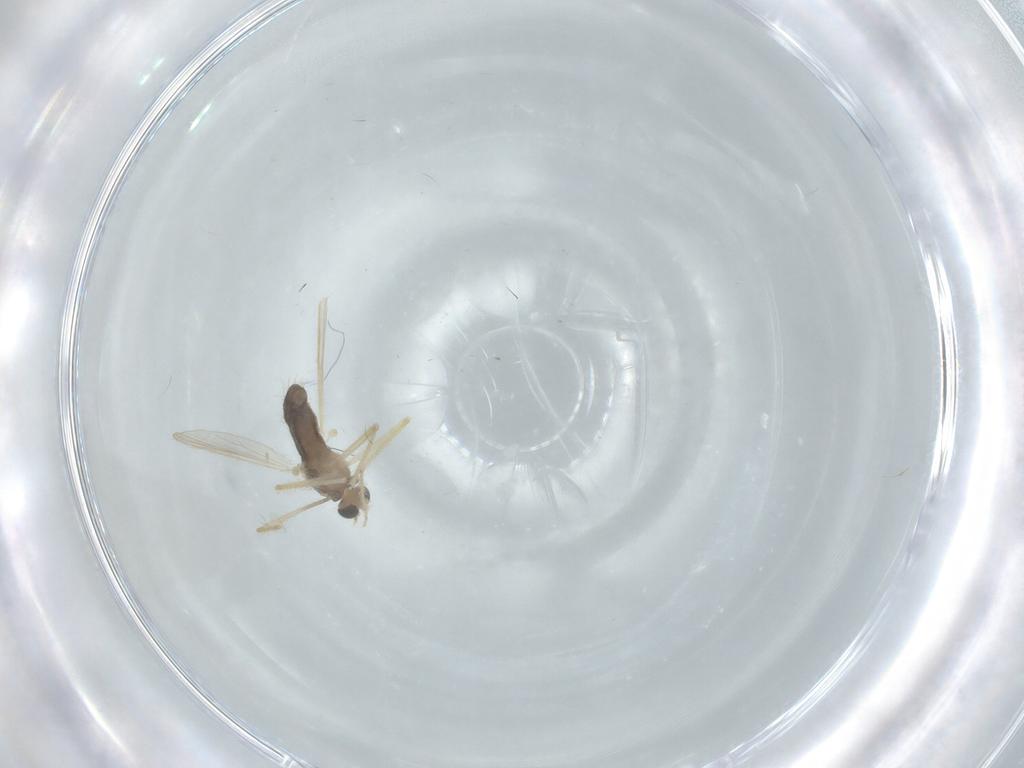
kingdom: Animalia
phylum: Arthropoda
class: Insecta
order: Diptera
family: Chironomidae
